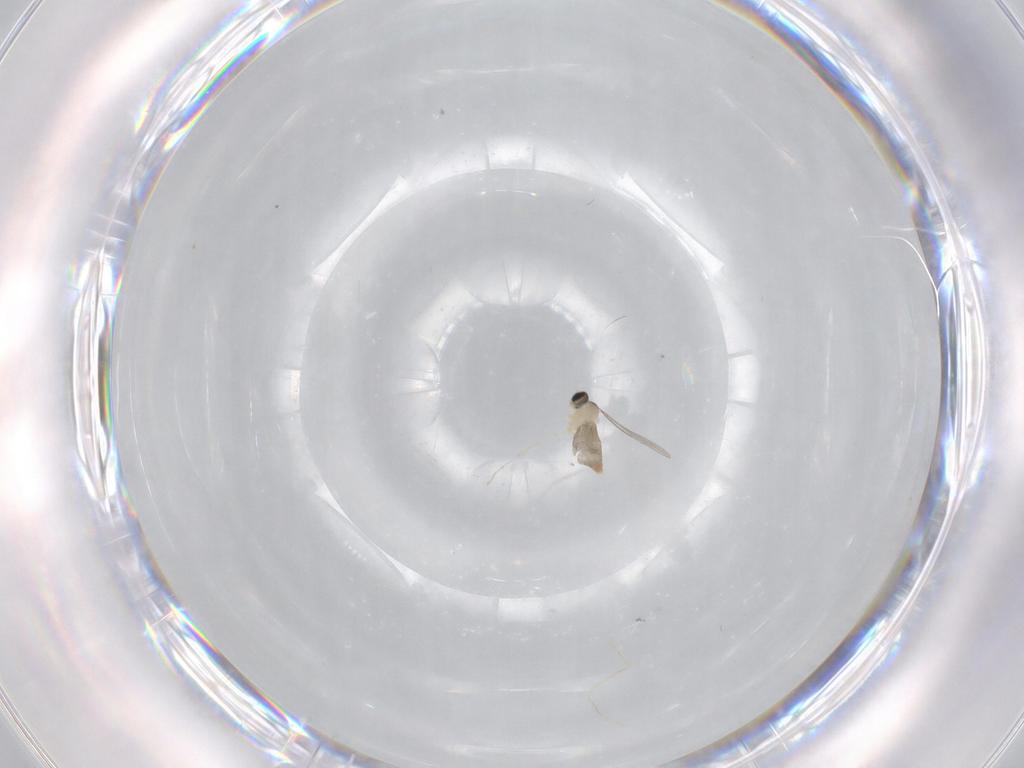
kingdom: Animalia
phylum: Arthropoda
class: Insecta
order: Diptera
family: Cecidomyiidae
